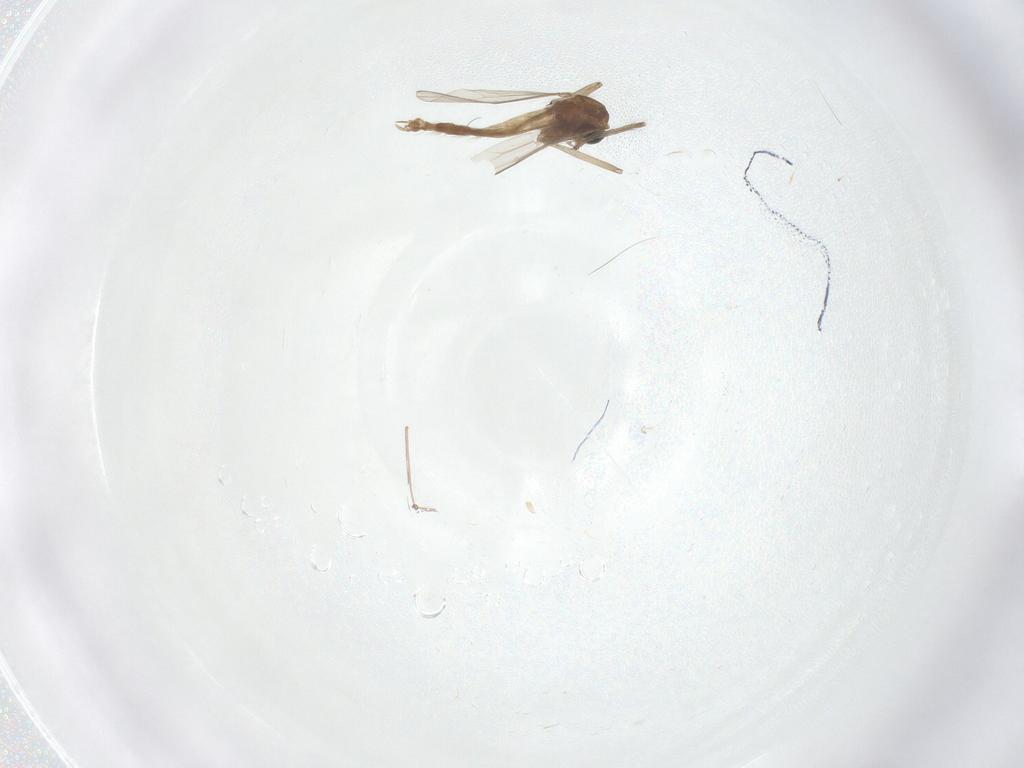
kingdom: Animalia
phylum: Arthropoda
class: Insecta
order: Diptera
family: Chironomidae
